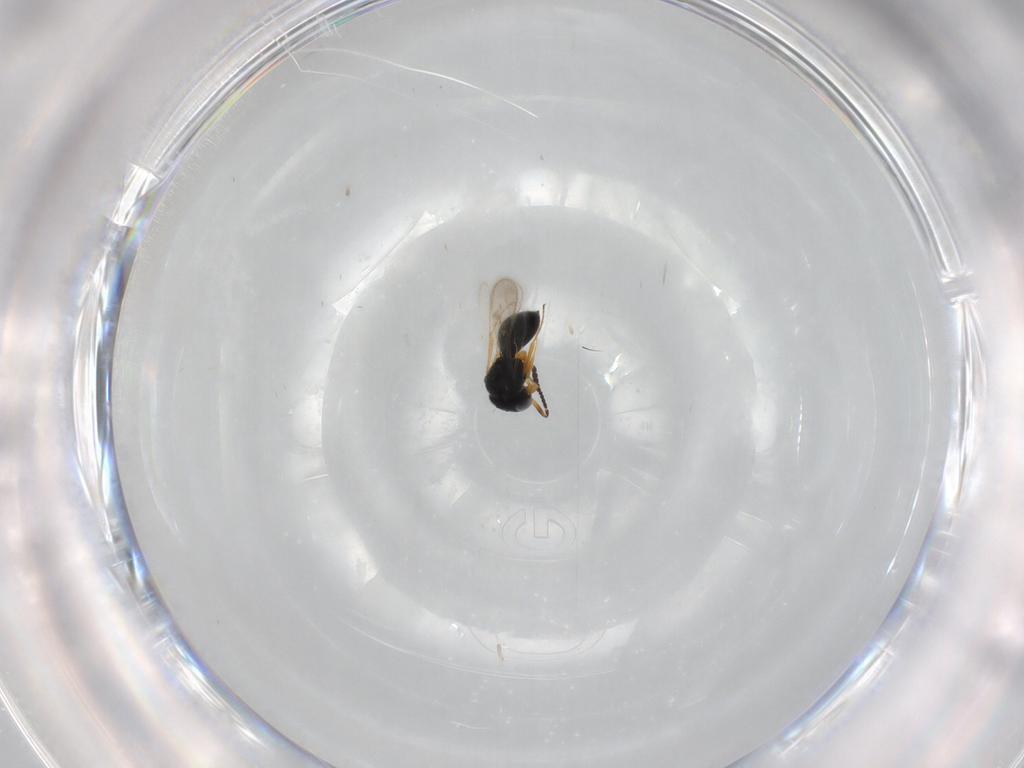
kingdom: Animalia
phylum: Arthropoda
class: Insecta
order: Hymenoptera
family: Scelionidae
